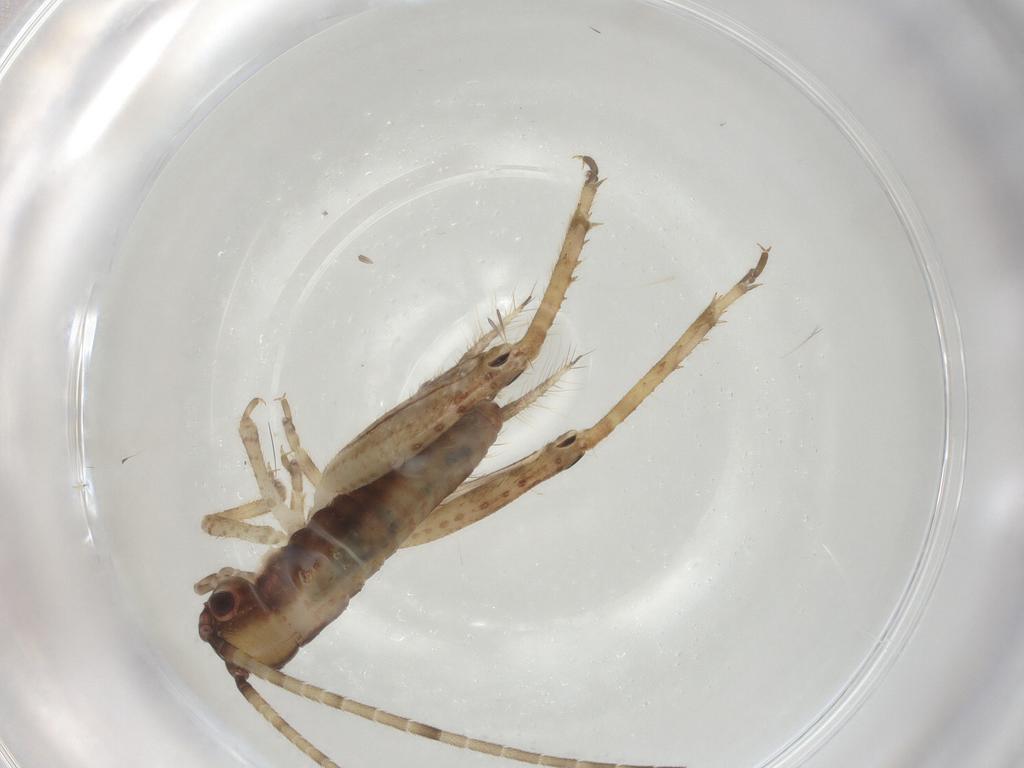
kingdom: Animalia
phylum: Arthropoda
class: Insecta
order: Orthoptera
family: Gryllidae
